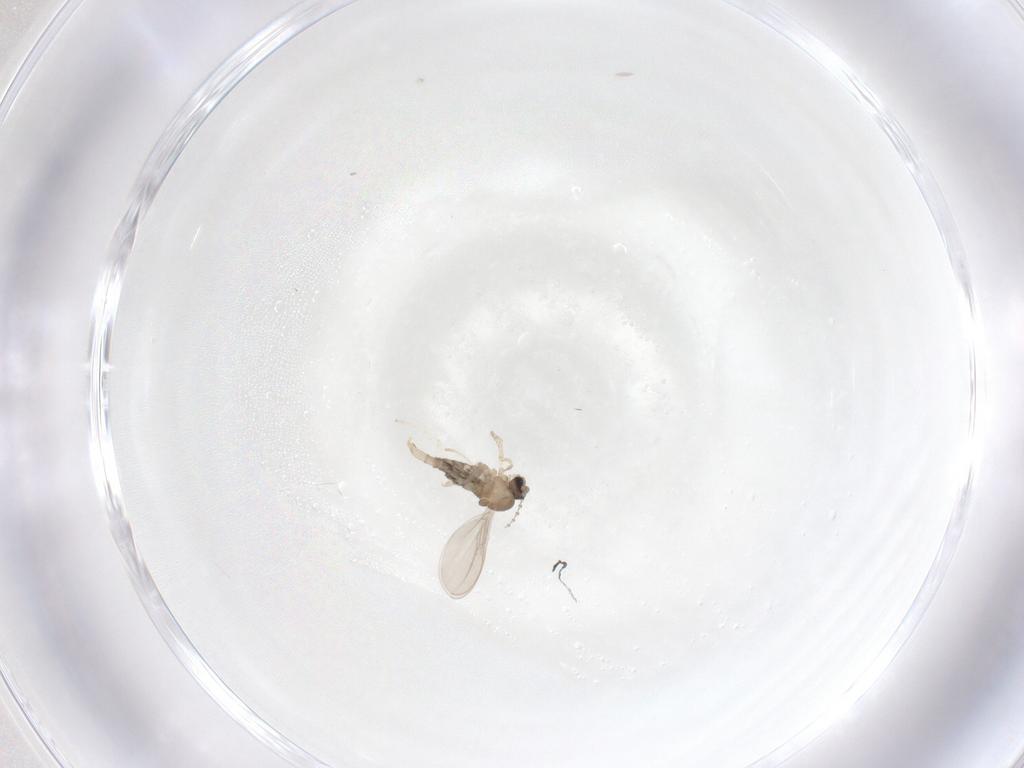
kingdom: Animalia
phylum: Arthropoda
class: Insecta
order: Diptera
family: Cecidomyiidae
